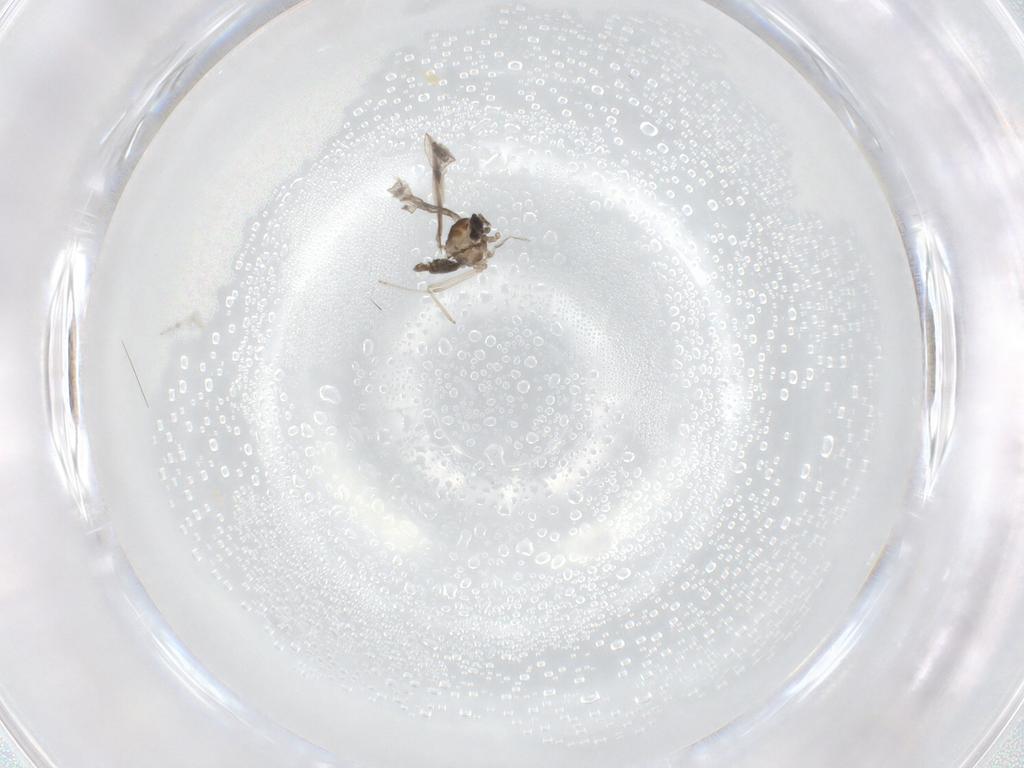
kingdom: Animalia
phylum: Arthropoda
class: Insecta
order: Diptera
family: Cecidomyiidae
